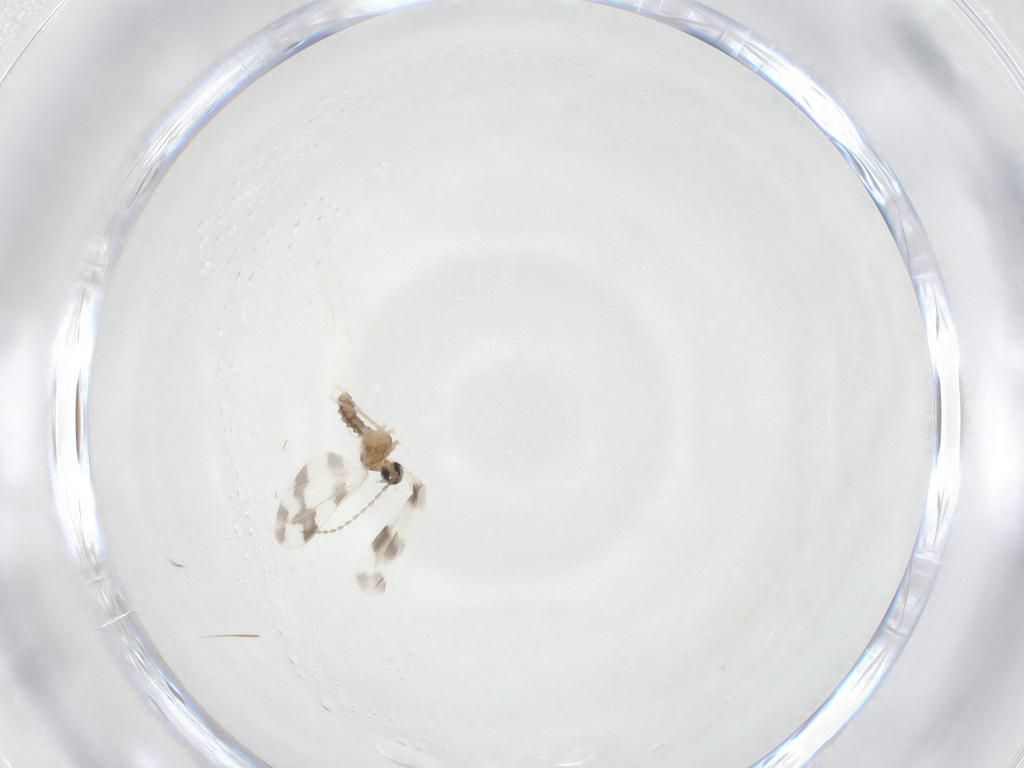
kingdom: Animalia
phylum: Arthropoda
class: Insecta
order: Diptera
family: Cecidomyiidae
